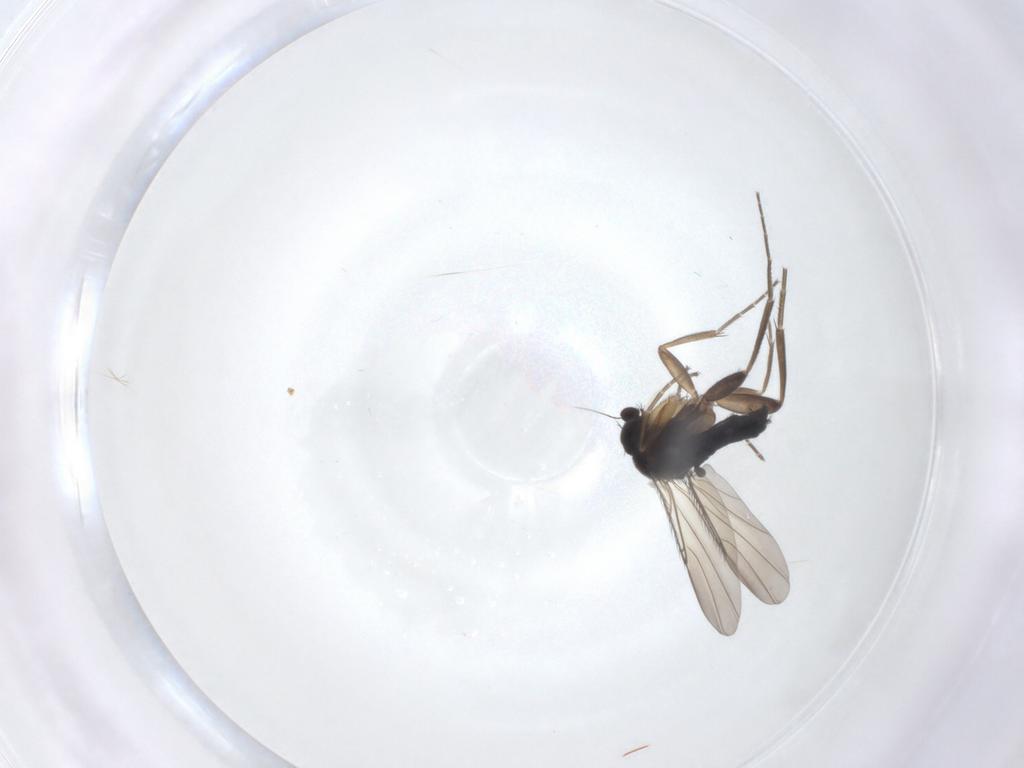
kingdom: Animalia
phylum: Arthropoda
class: Insecta
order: Diptera
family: Phoridae
